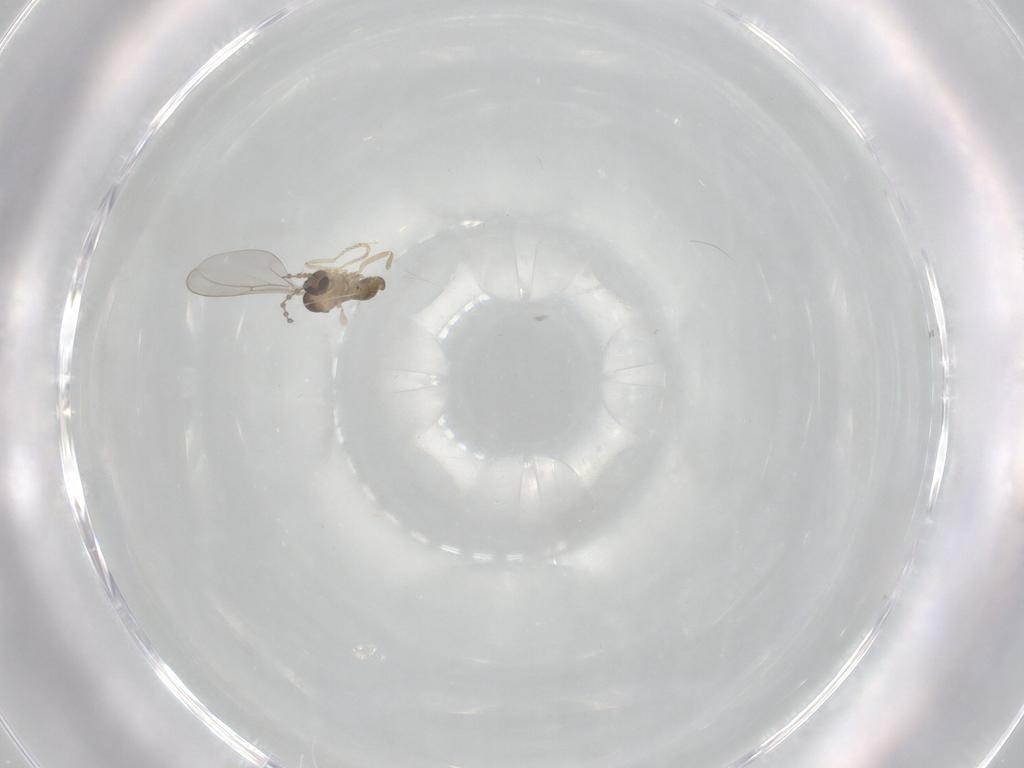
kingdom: Animalia
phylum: Arthropoda
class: Insecta
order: Diptera
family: Cecidomyiidae
